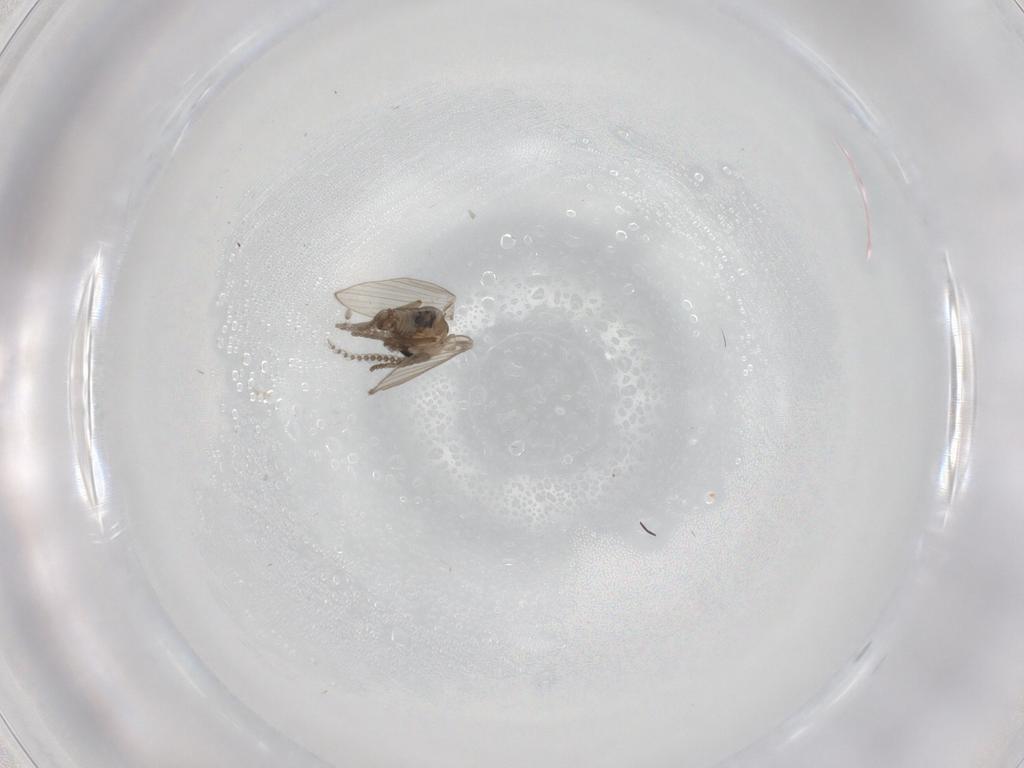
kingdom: Animalia
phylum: Arthropoda
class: Insecta
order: Diptera
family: Psychodidae
